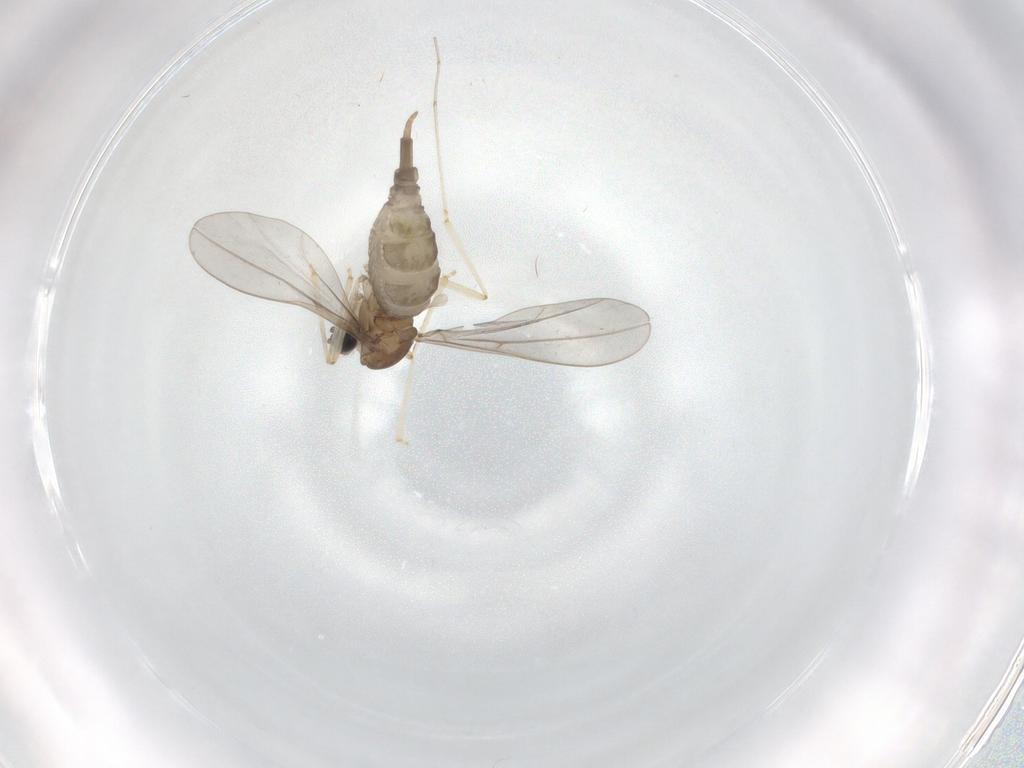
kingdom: Animalia
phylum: Arthropoda
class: Insecta
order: Diptera
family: Cecidomyiidae
